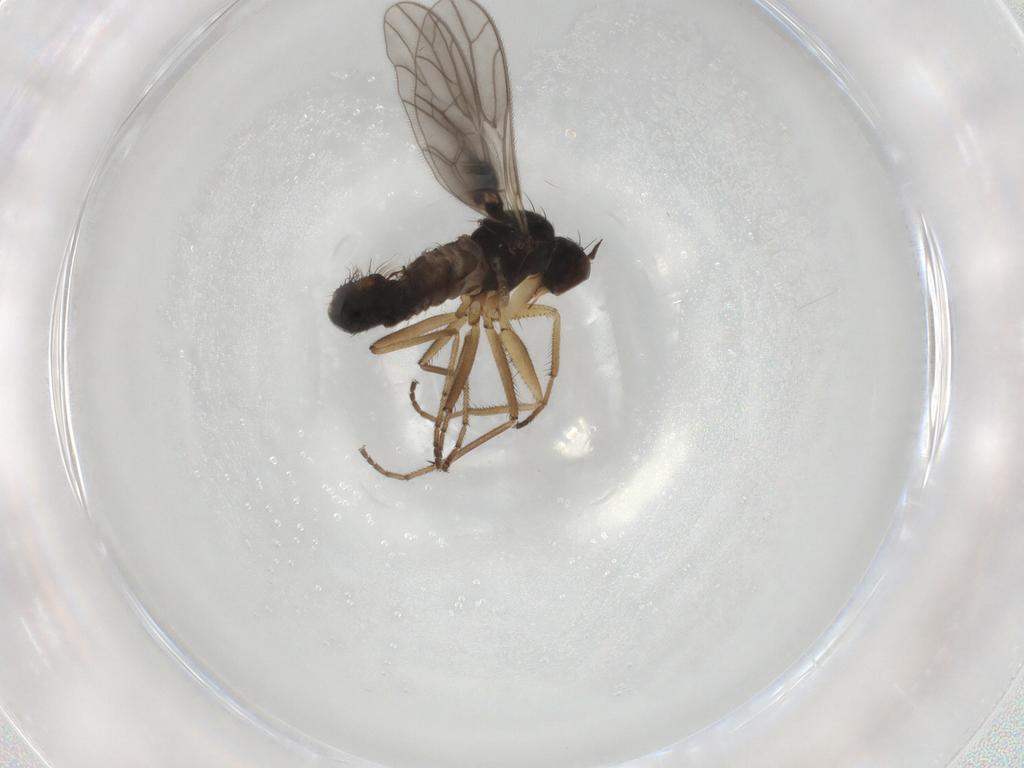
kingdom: Animalia
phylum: Arthropoda
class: Insecta
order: Diptera
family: Empididae
